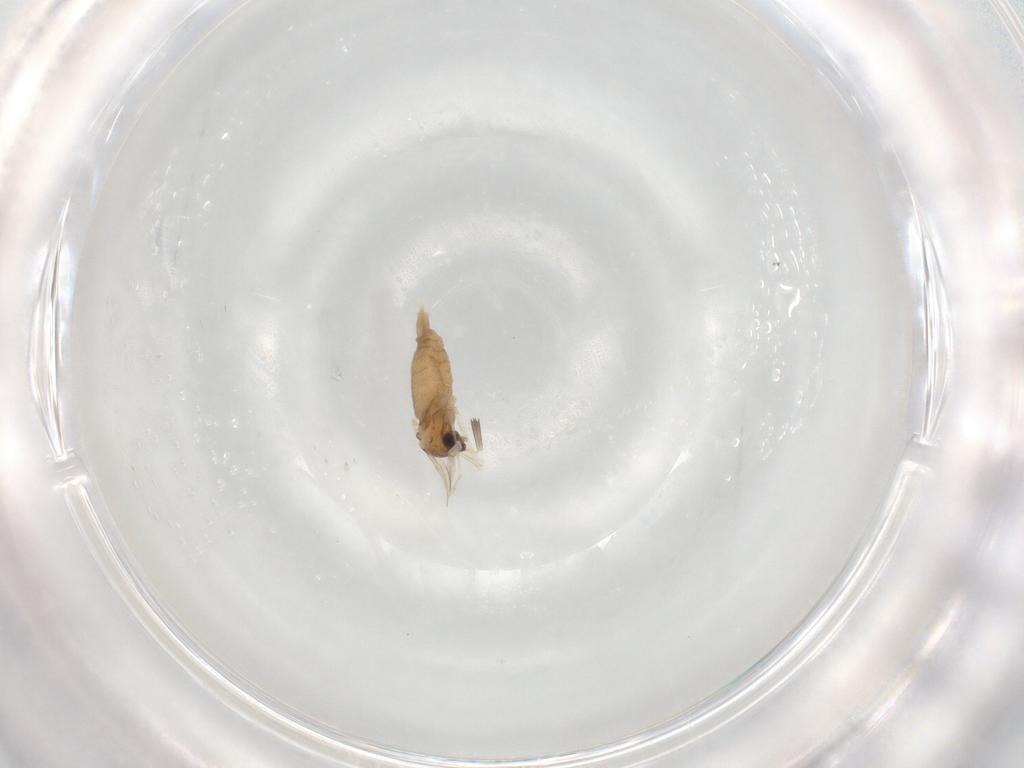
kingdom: Animalia
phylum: Arthropoda
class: Insecta
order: Diptera
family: Cecidomyiidae
